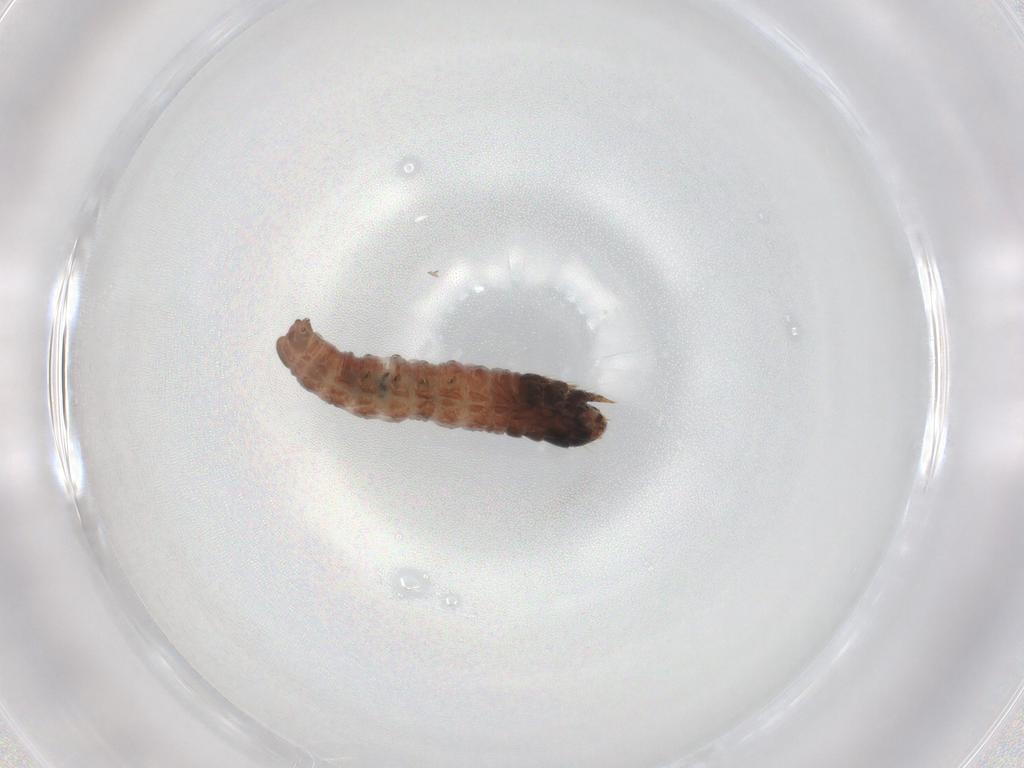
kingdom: Animalia
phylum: Arthropoda
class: Insecta
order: Lepidoptera
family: Psychidae
